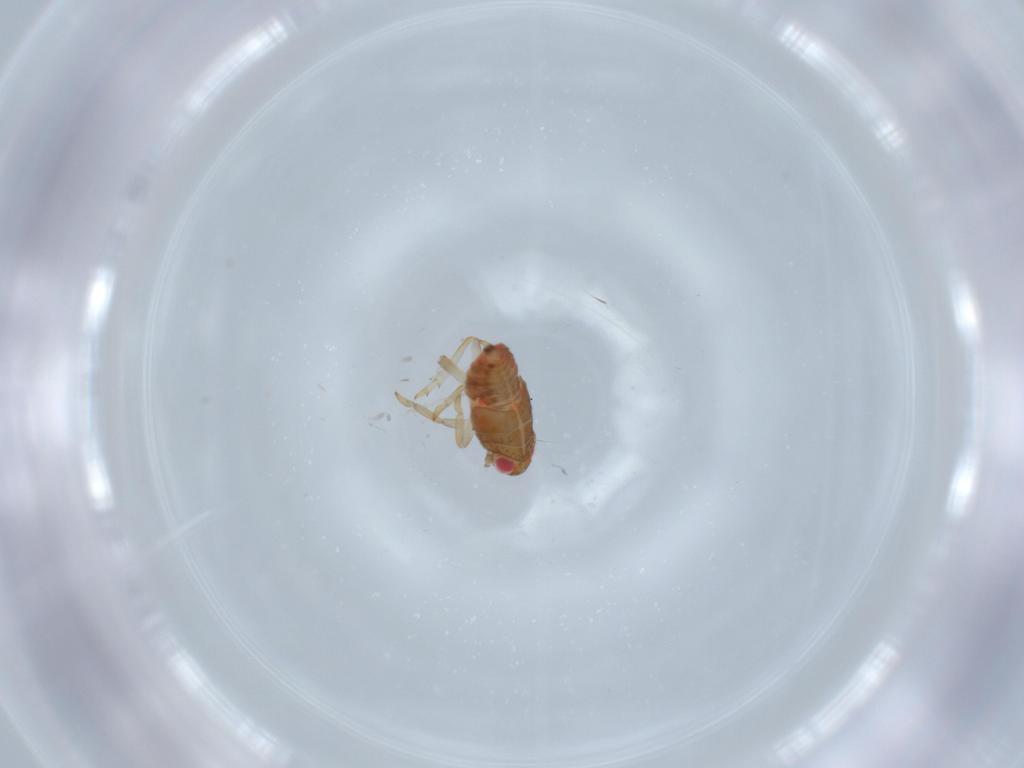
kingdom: Animalia
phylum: Arthropoda
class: Insecta
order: Hemiptera
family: Issidae
